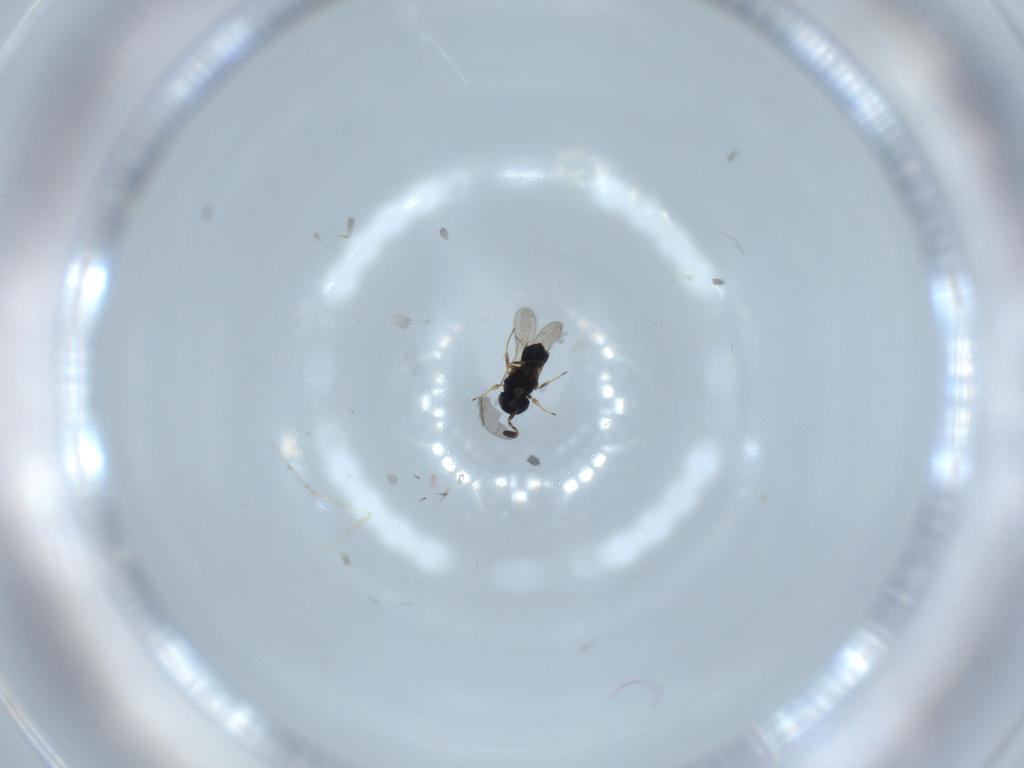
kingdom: Animalia
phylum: Arthropoda
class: Insecta
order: Hymenoptera
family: Scelionidae
